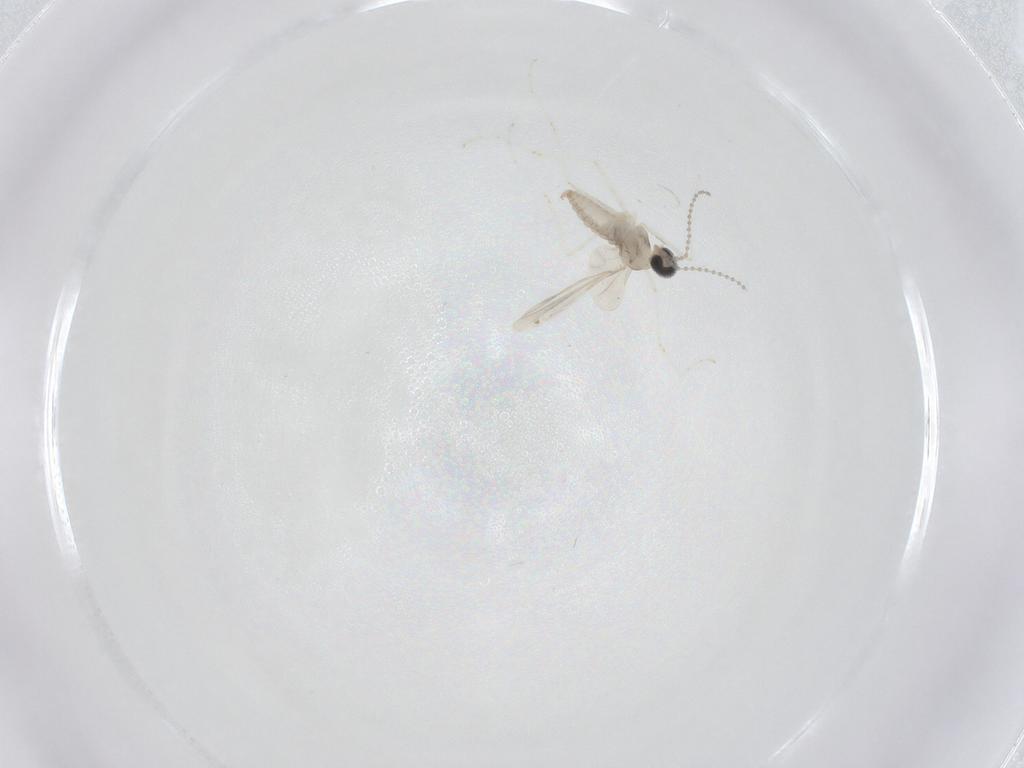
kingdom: Animalia
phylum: Arthropoda
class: Insecta
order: Diptera
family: Ceratopogonidae
